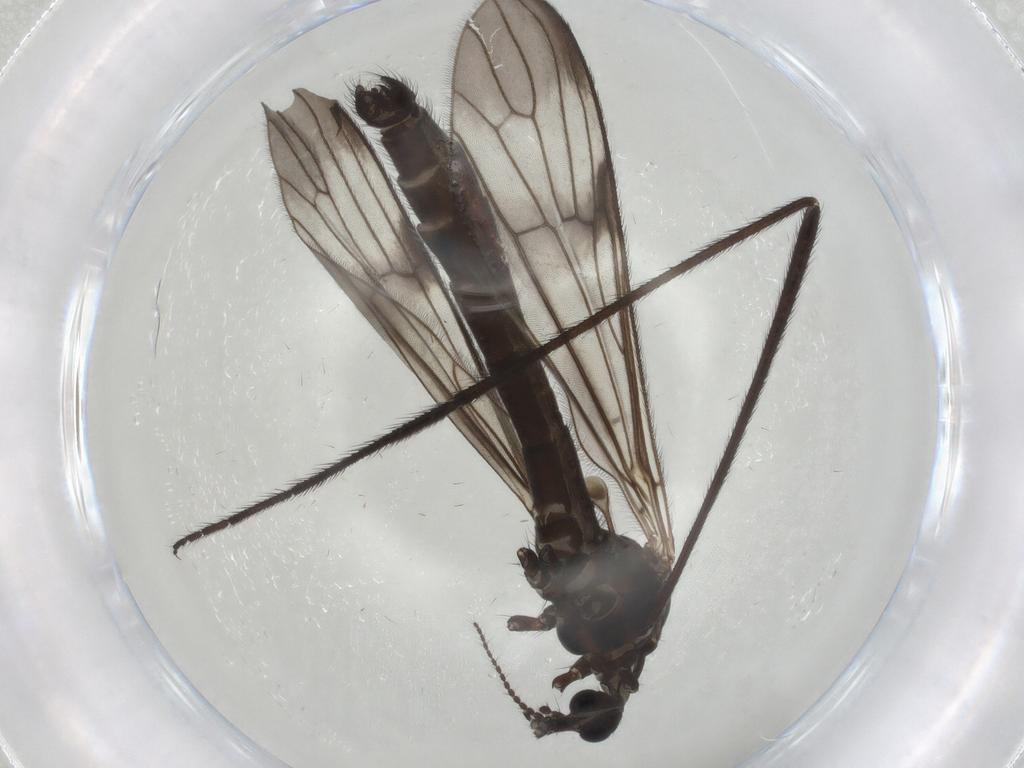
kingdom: Animalia
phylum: Arthropoda
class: Insecta
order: Diptera
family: Limoniidae
